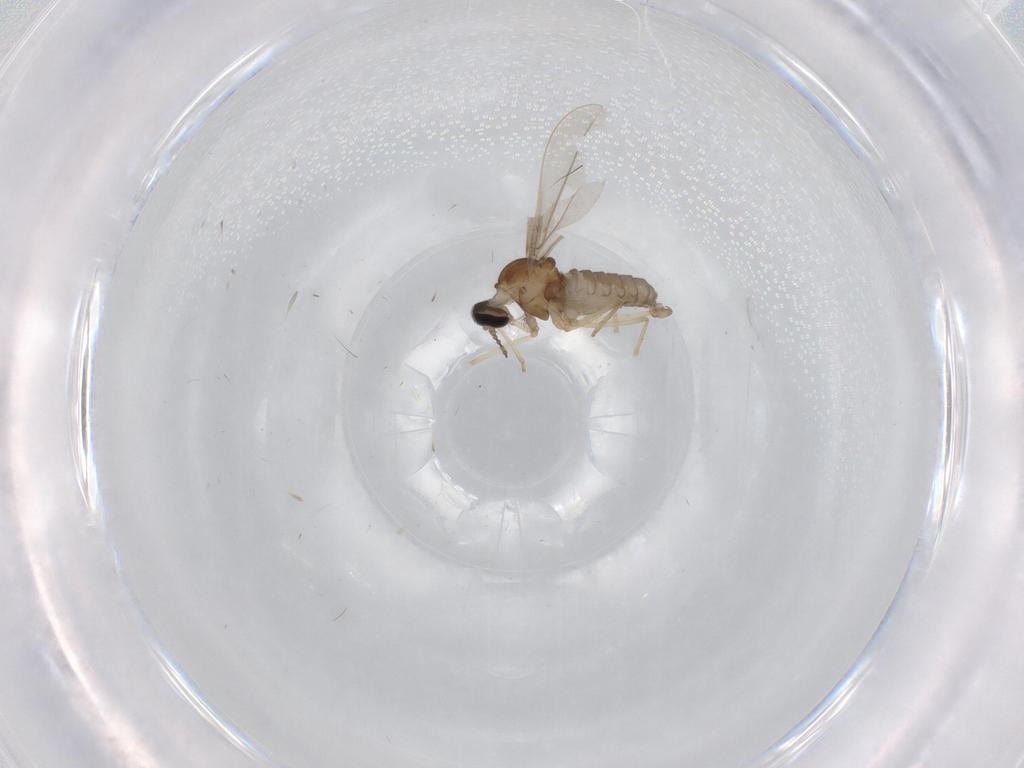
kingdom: Animalia
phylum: Arthropoda
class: Insecta
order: Diptera
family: Cecidomyiidae
